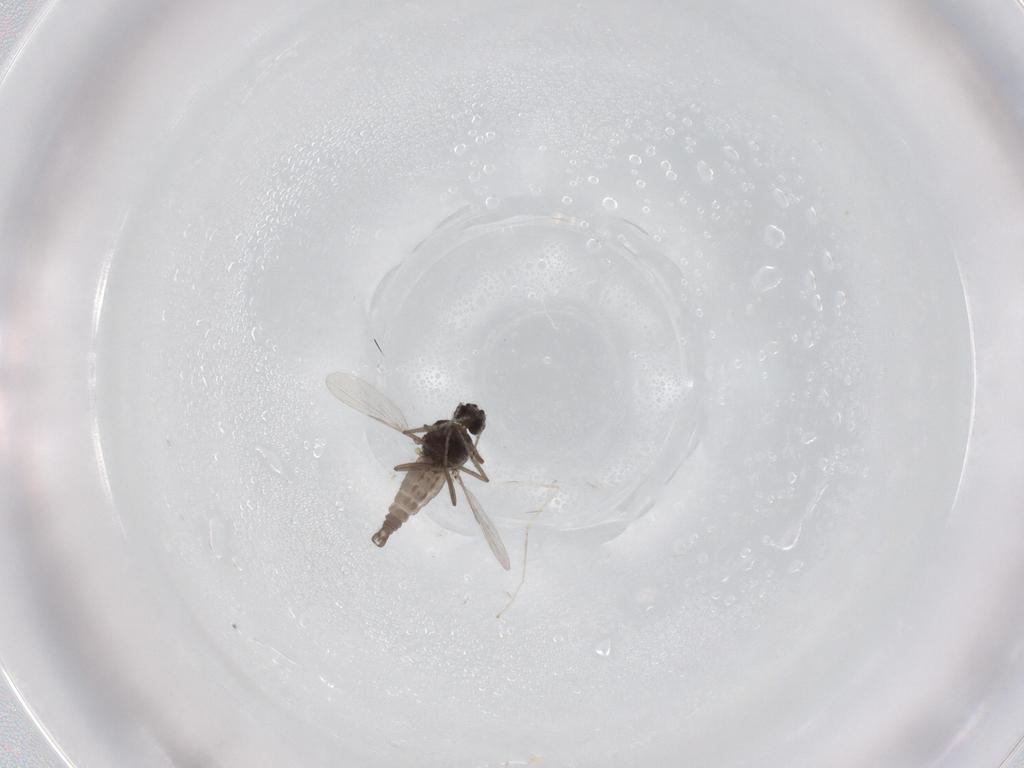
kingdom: Animalia
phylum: Arthropoda
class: Insecta
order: Diptera
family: Ceratopogonidae
